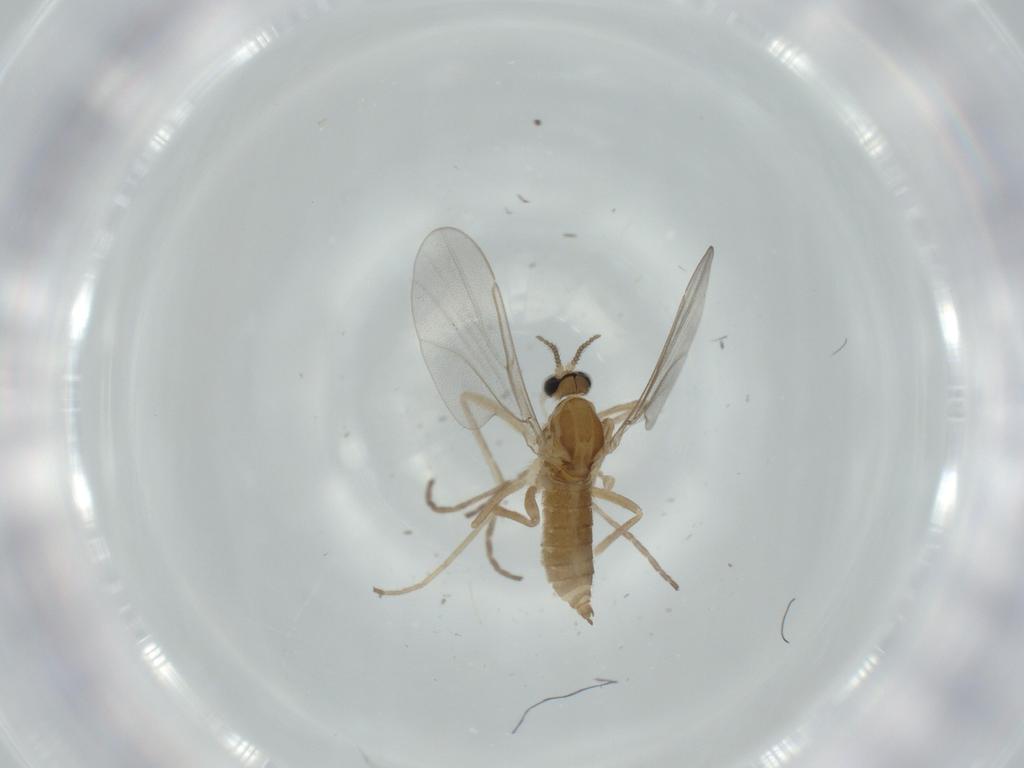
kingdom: Animalia
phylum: Arthropoda
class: Insecta
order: Diptera
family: Cecidomyiidae
